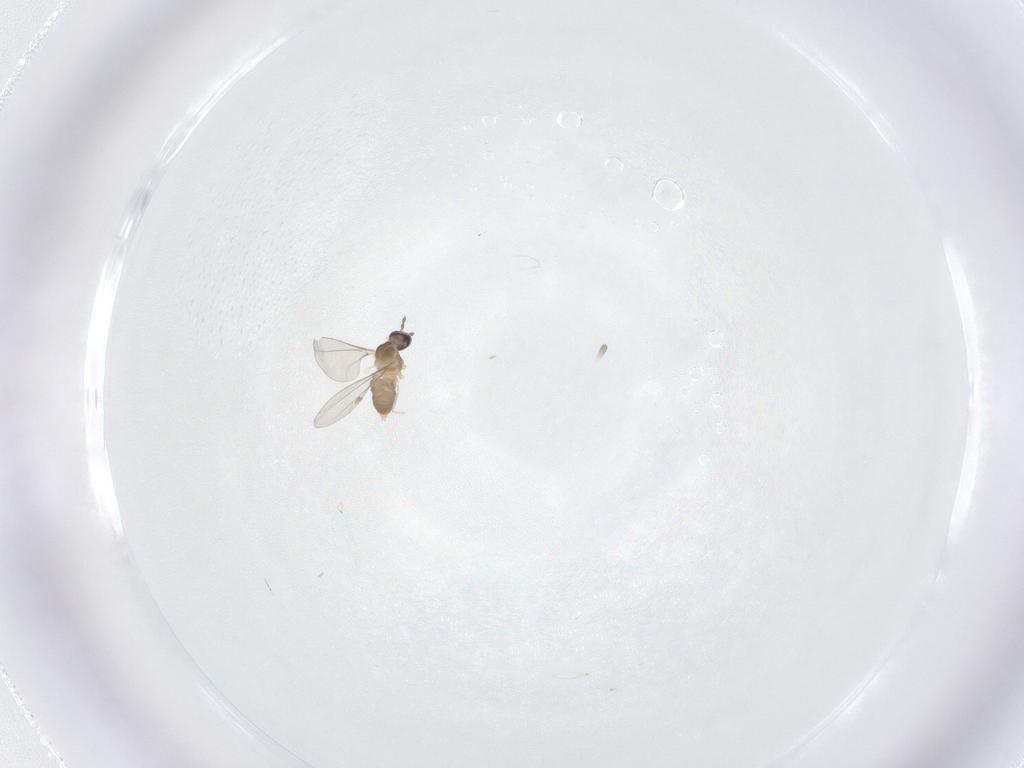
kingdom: Animalia
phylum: Arthropoda
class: Insecta
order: Diptera
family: Cecidomyiidae
